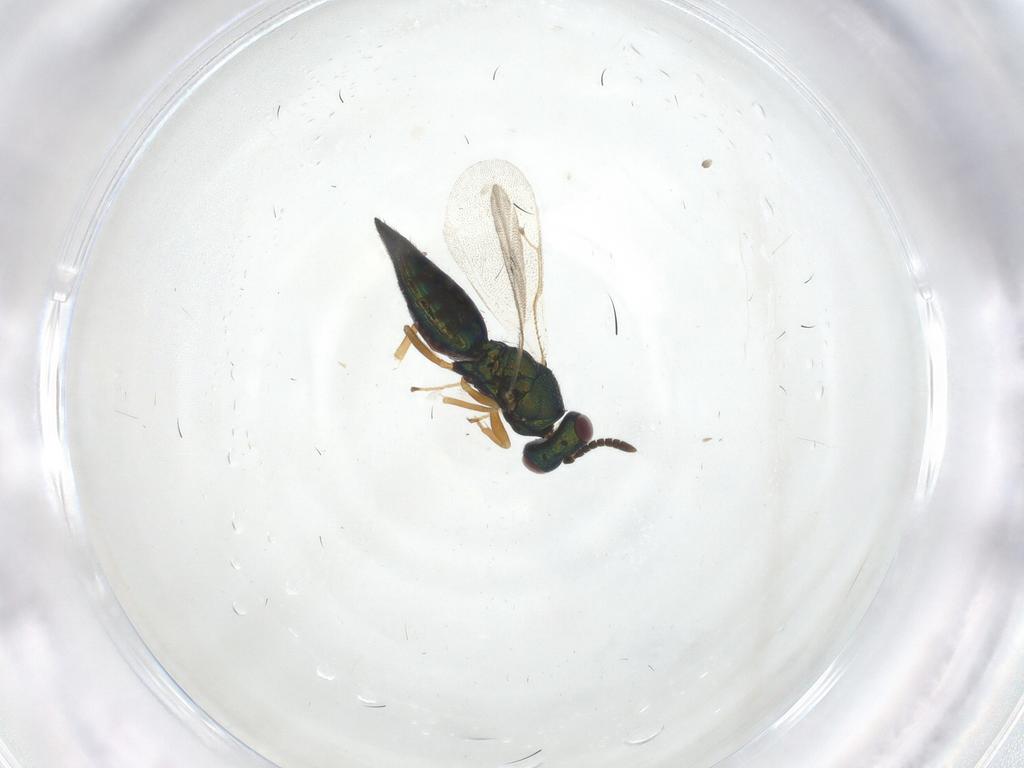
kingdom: Animalia
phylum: Arthropoda
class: Insecta
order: Hymenoptera
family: Pteromalidae
